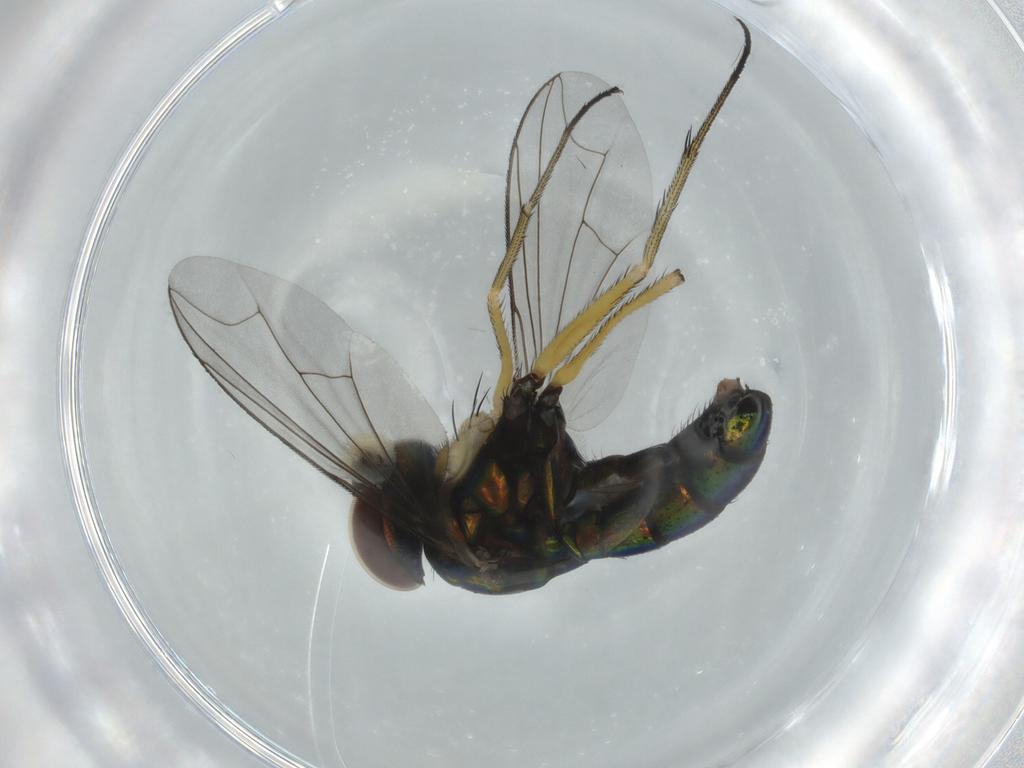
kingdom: Animalia
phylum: Arthropoda
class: Insecta
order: Diptera
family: Dolichopodidae
